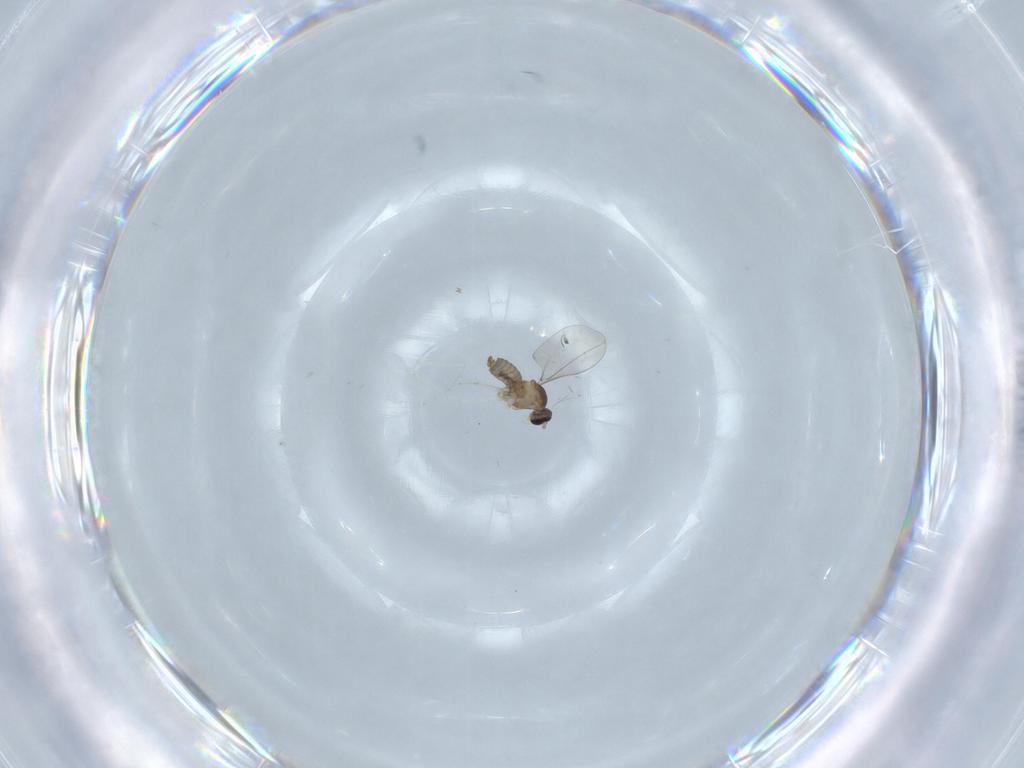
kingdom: Animalia
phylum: Arthropoda
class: Insecta
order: Diptera
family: Cecidomyiidae
